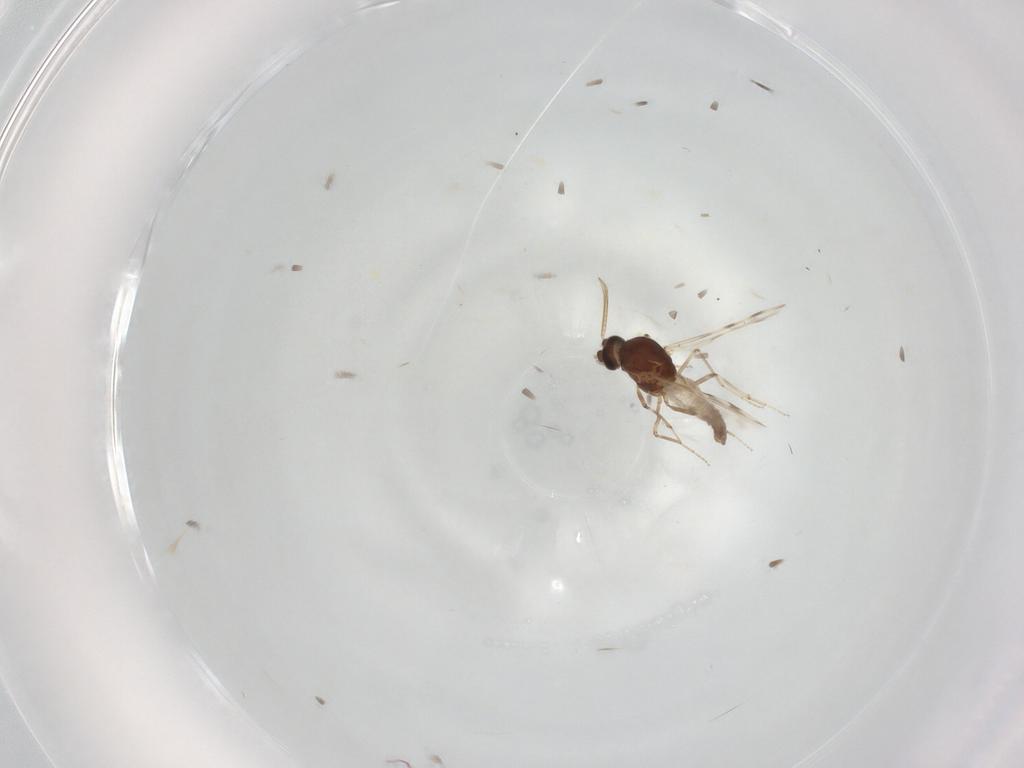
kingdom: Animalia
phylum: Arthropoda
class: Insecta
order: Diptera
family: Ceratopogonidae
